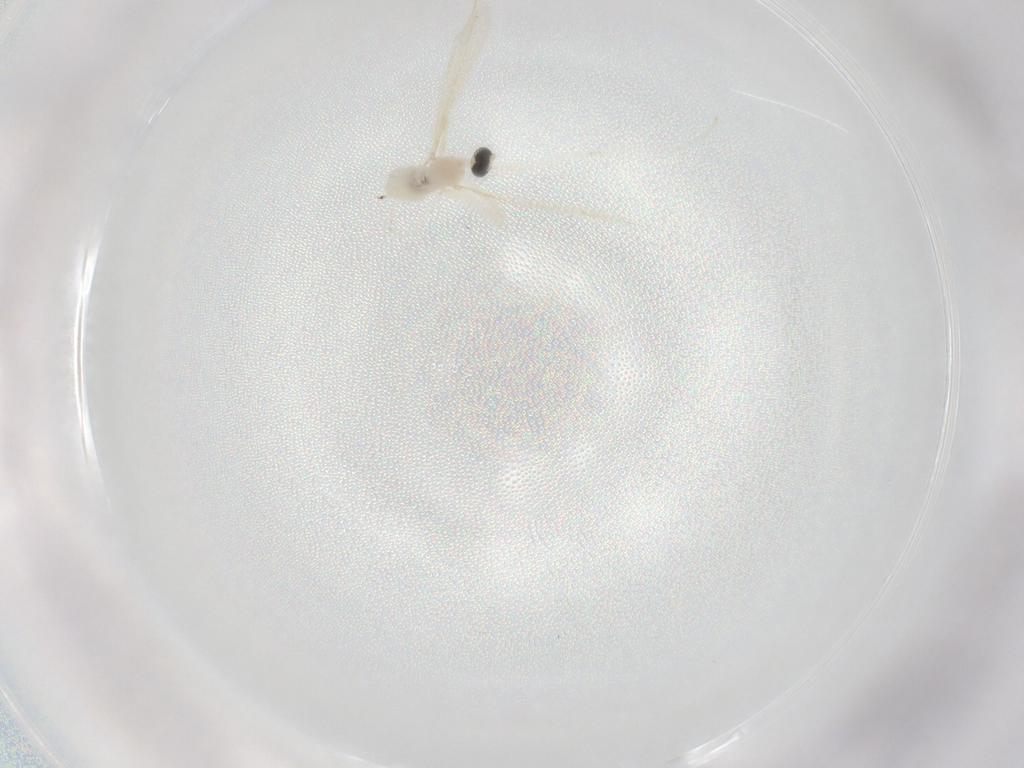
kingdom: Animalia
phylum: Arthropoda
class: Insecta
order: Diptera
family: Cecidomyiidae
